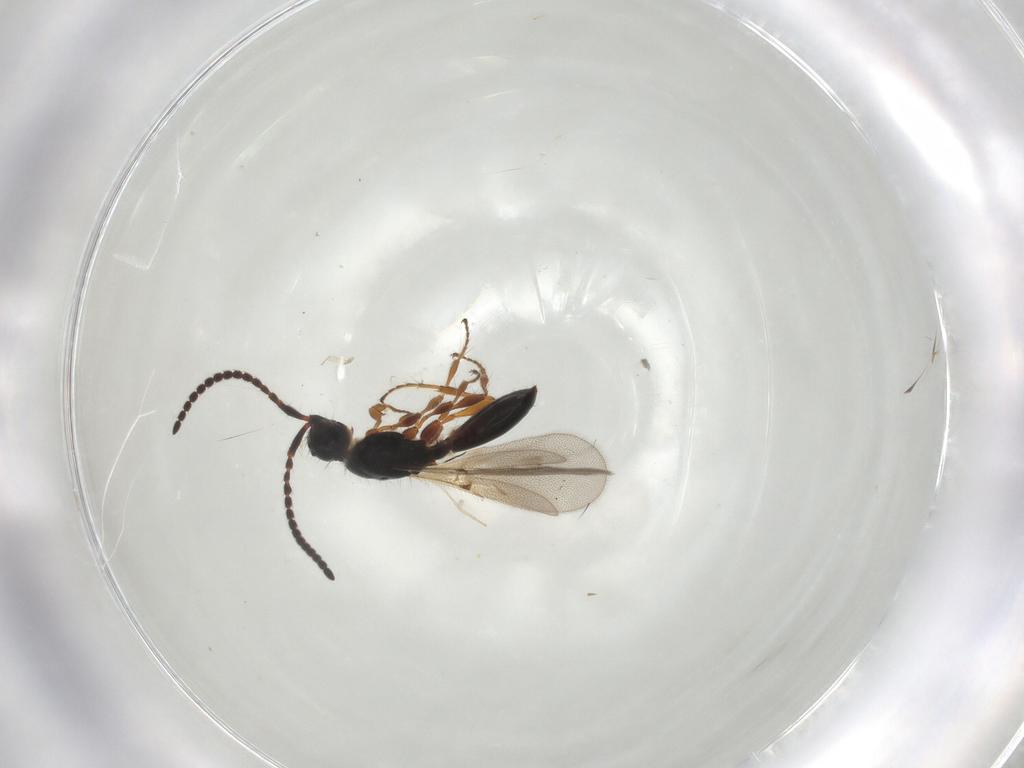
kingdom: Animalia
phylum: Arthropoda
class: Insecta
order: Hymenoptera
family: Diapriidae
